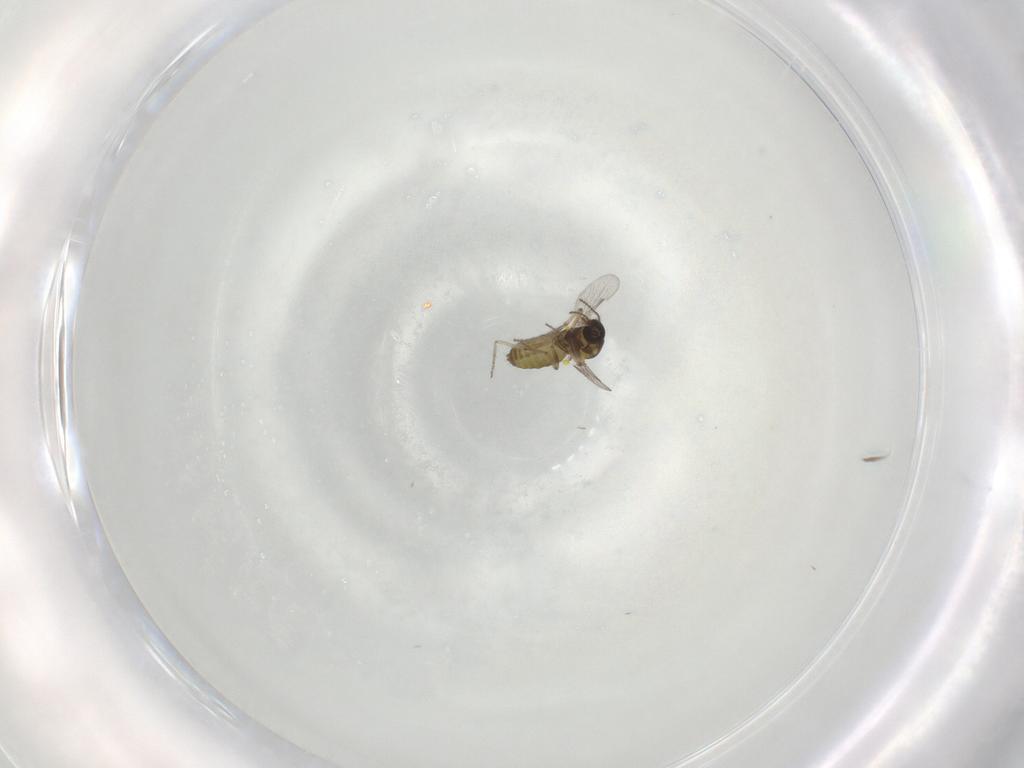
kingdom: Animalia
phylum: Arthropoda
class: Insecta
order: Diptera
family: Ceratopogonidae
